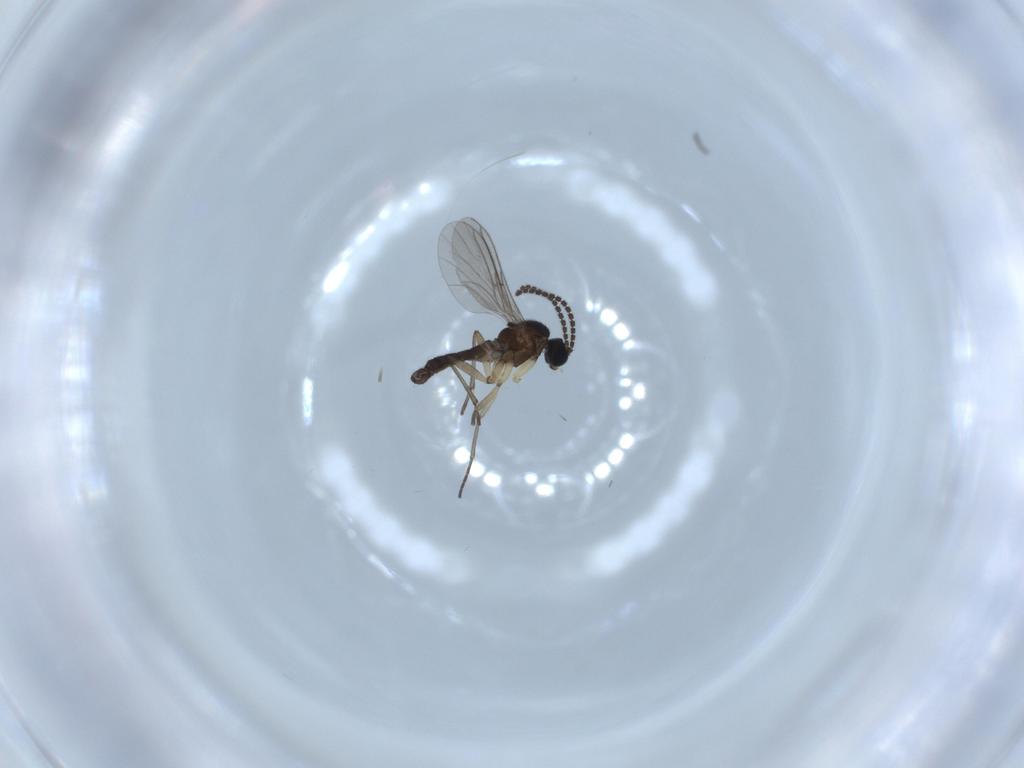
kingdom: Animalia
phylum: Arthropoda
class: Insecta
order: Diptera
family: Sciaridae
